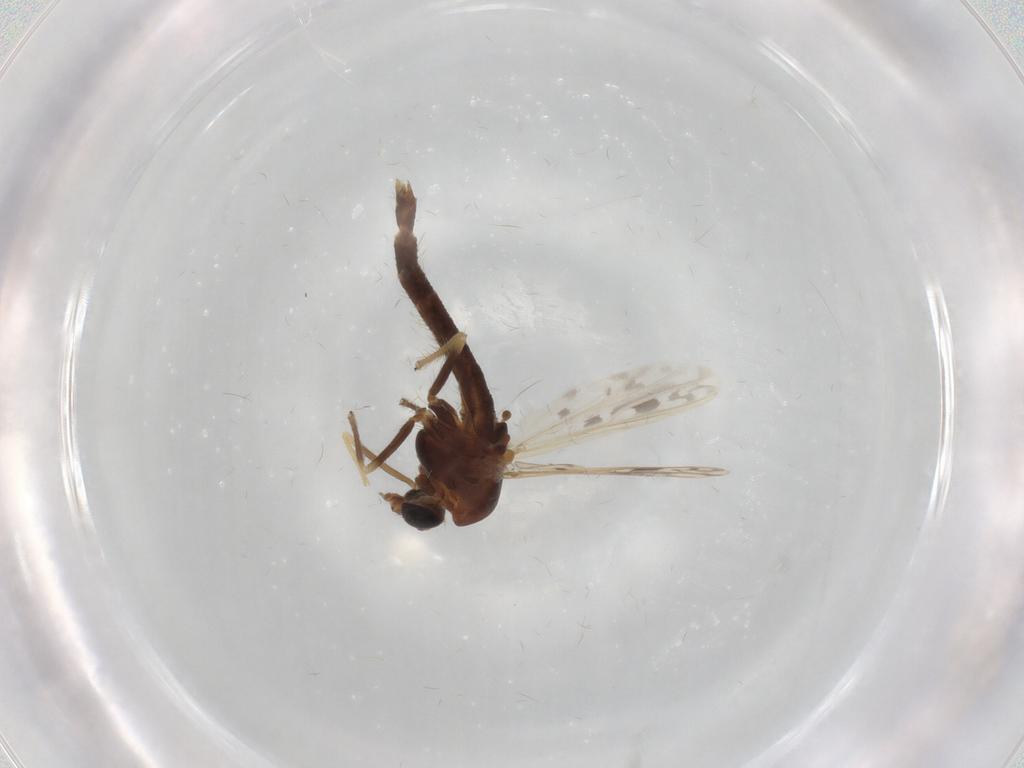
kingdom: Animalia
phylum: Arthropoda
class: Insecta
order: Diptera
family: Chironomidae
